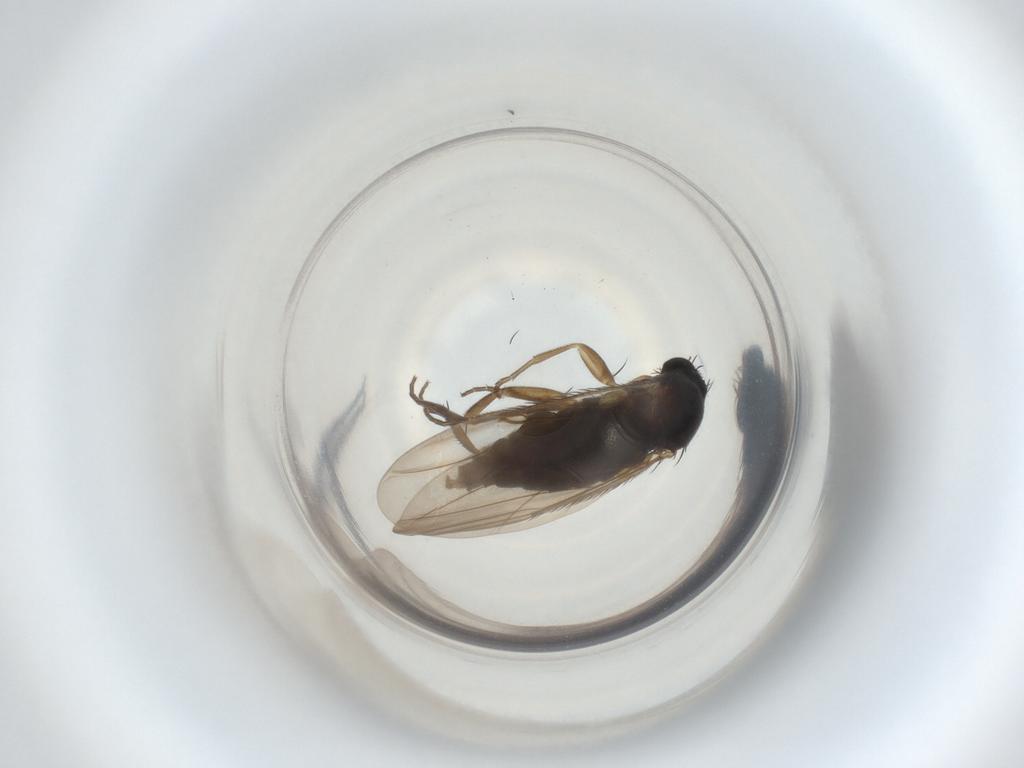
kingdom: Animalia
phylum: Arthropoda
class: Insecta
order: Diptera
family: Phoridae
